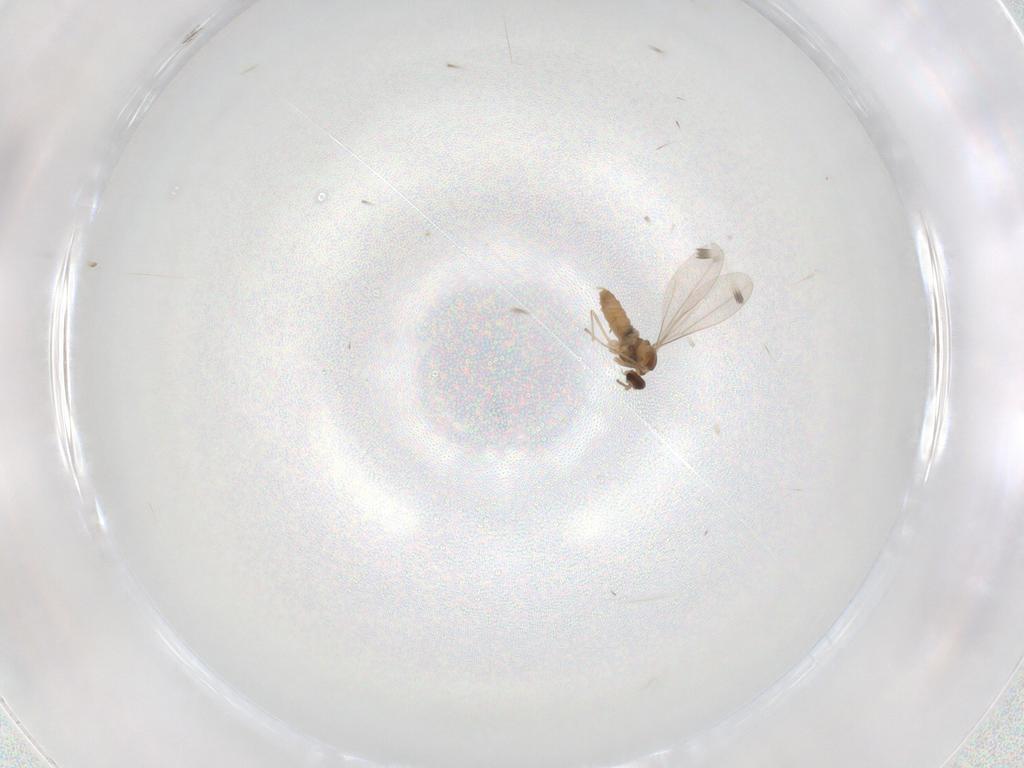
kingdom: Animalia
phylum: Arthropoda
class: Insecta
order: Diptera
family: Cecidomyiidae
